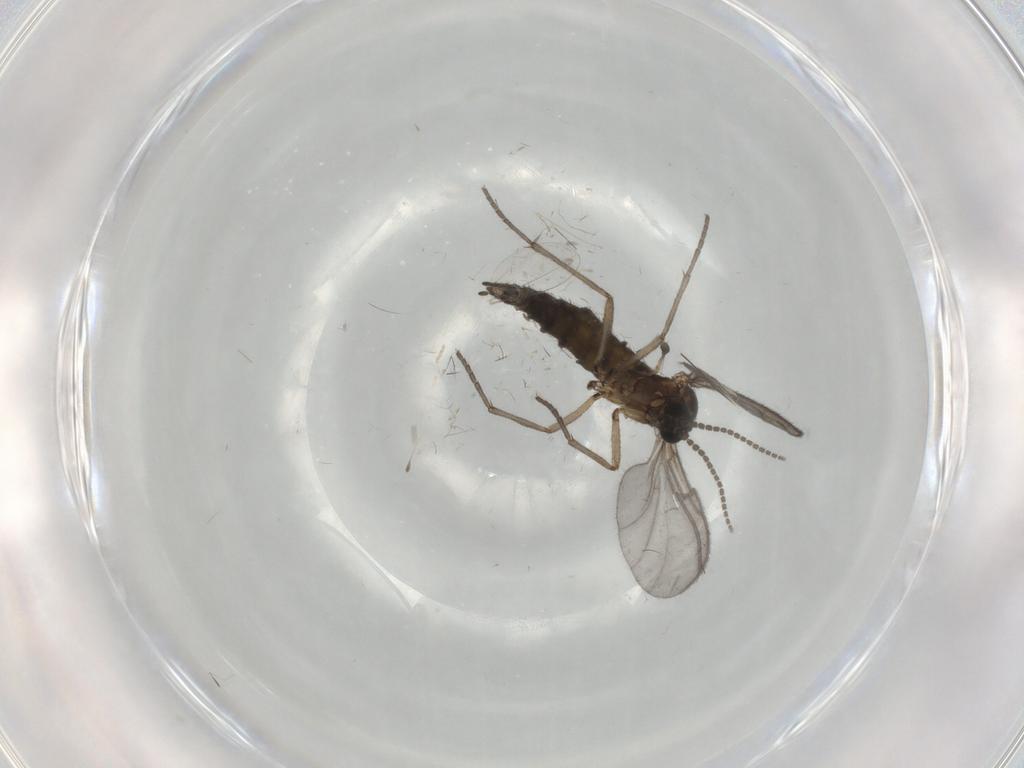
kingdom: Animalia
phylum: Arthropoda
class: Insecta
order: Diptera
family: Sciaridae
